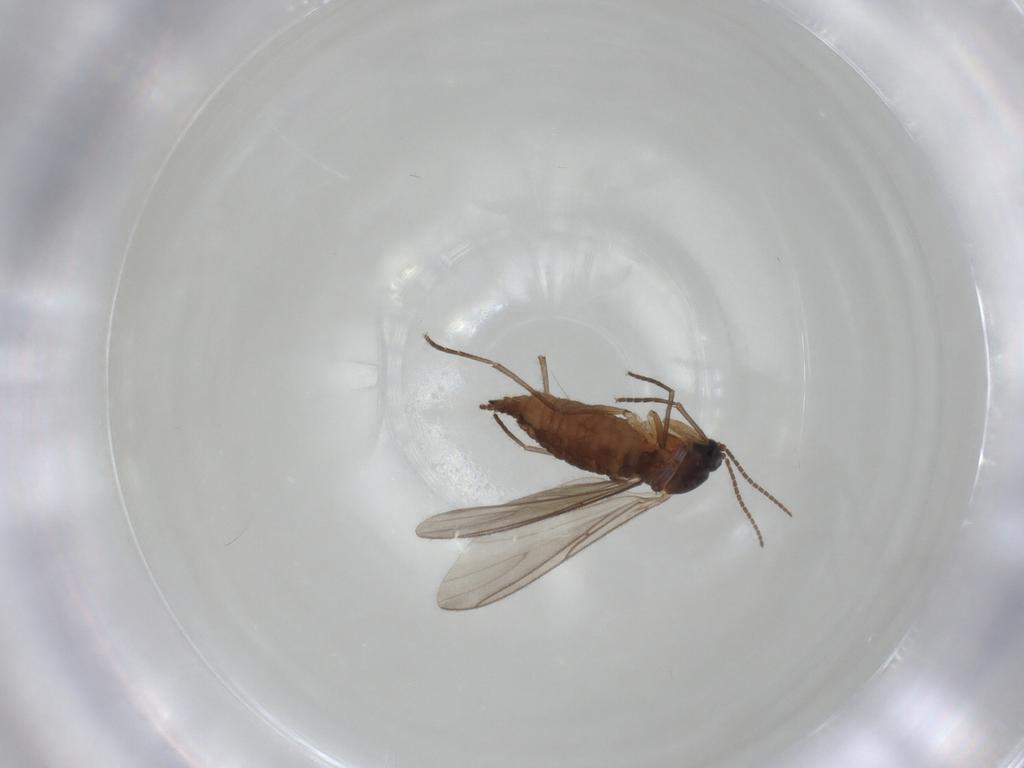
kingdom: Animalia
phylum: Arthropoda
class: Insecta
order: Diptera
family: Sciaridae
